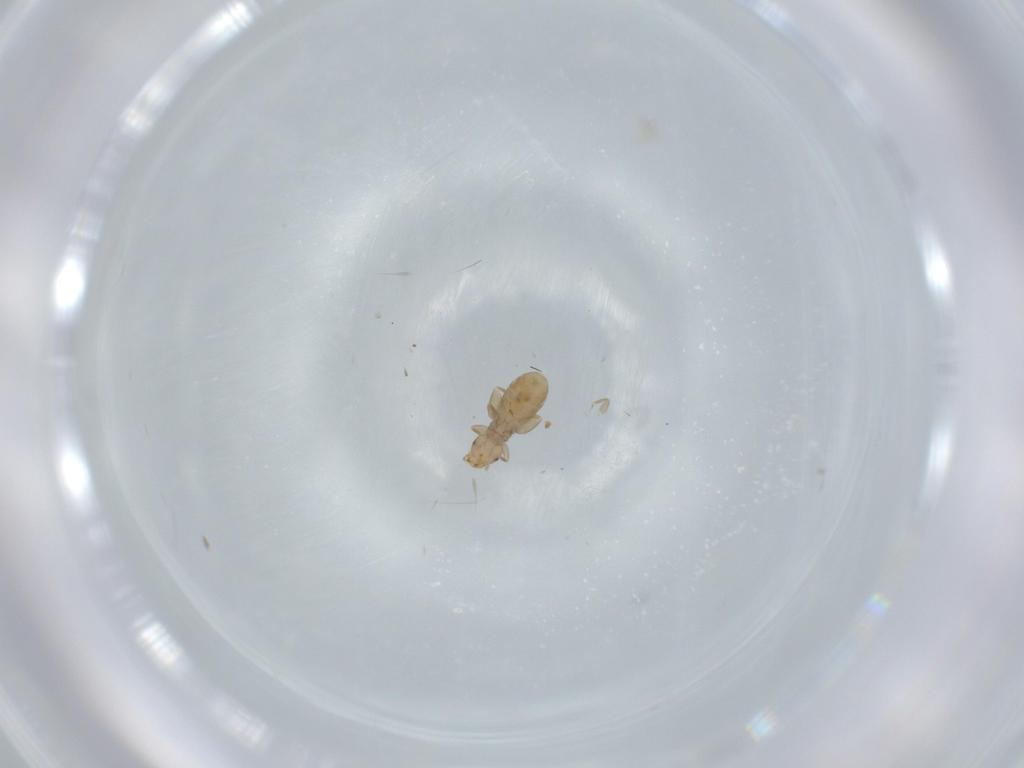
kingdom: Animalia
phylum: Arthropoda
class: Insecta
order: Psocodea
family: Liposcelididae
